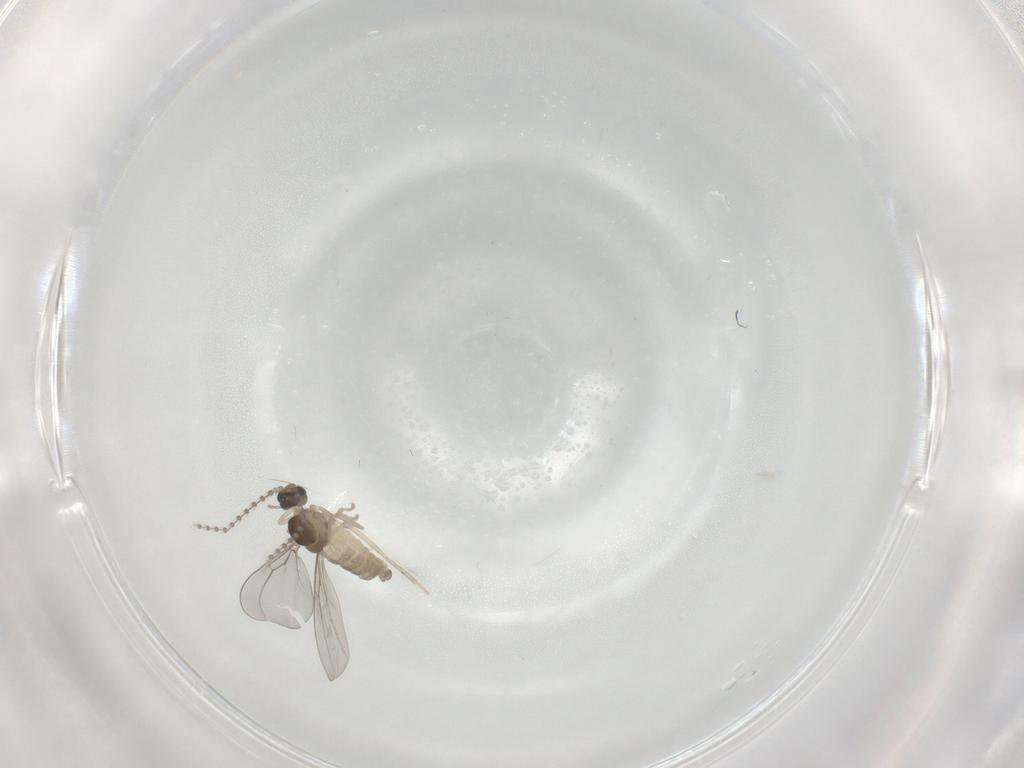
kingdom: Animalia
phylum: Arthropoda
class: Insecta
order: Diptera
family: Cecidomyiidae
